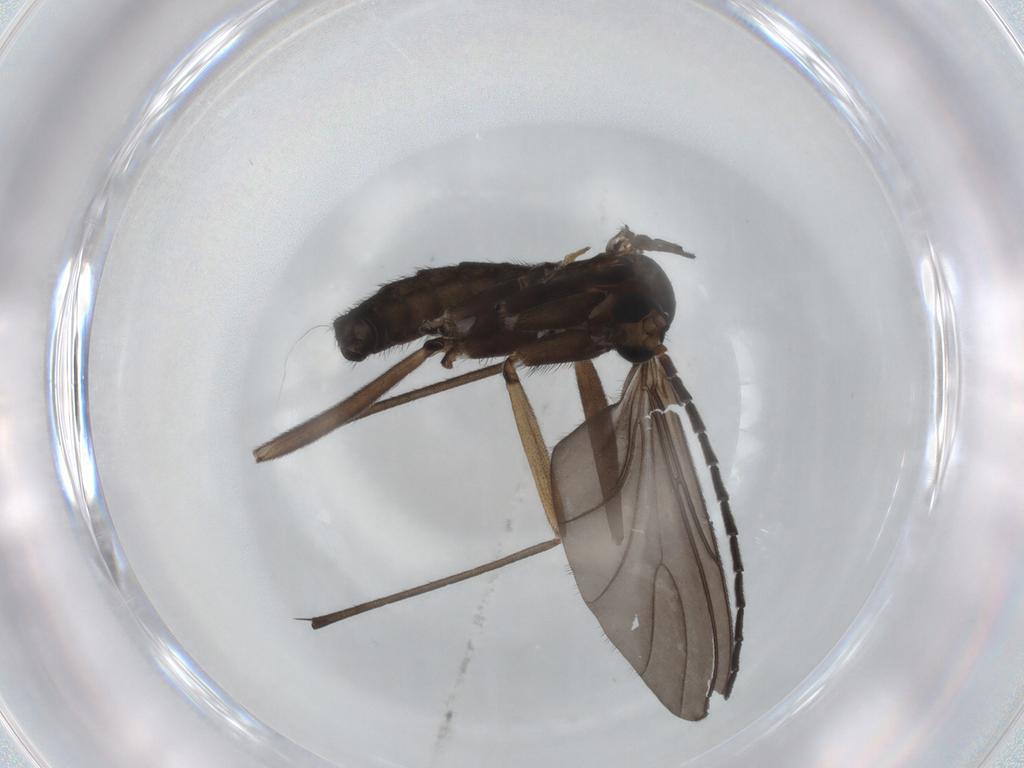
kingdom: Animalia
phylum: Arthropoda
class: Insecta
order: Diptera
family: Sciaridae
